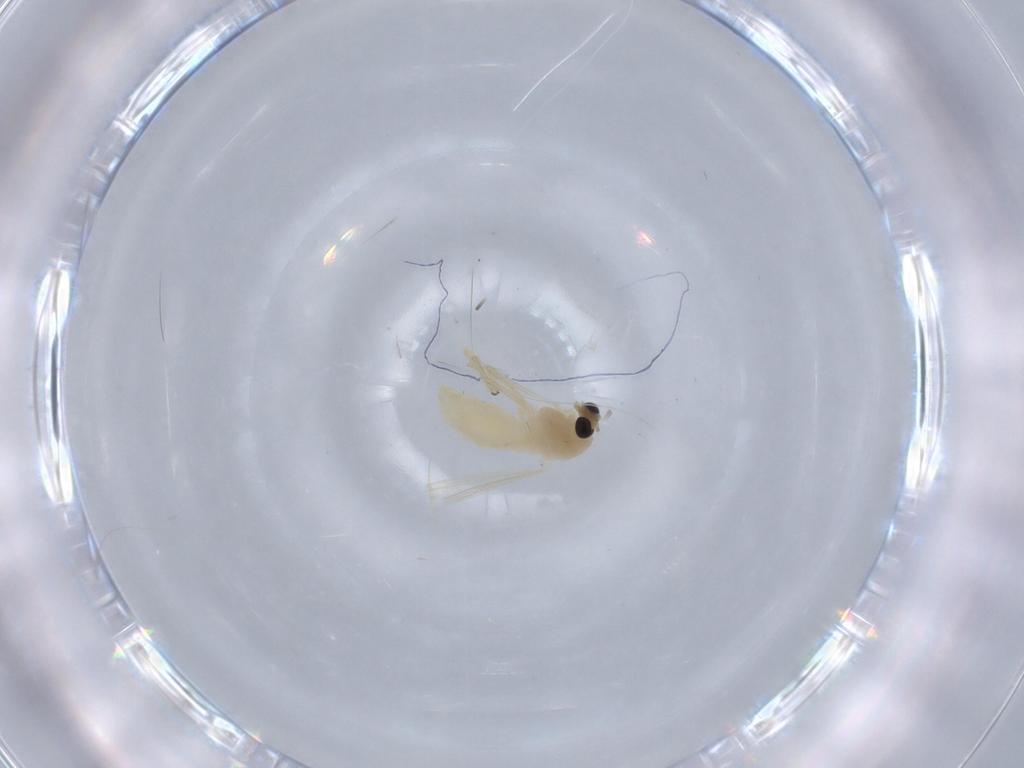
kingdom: Animalia
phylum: Arthropoda
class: Insecta
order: Diptera
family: Chironomidae
